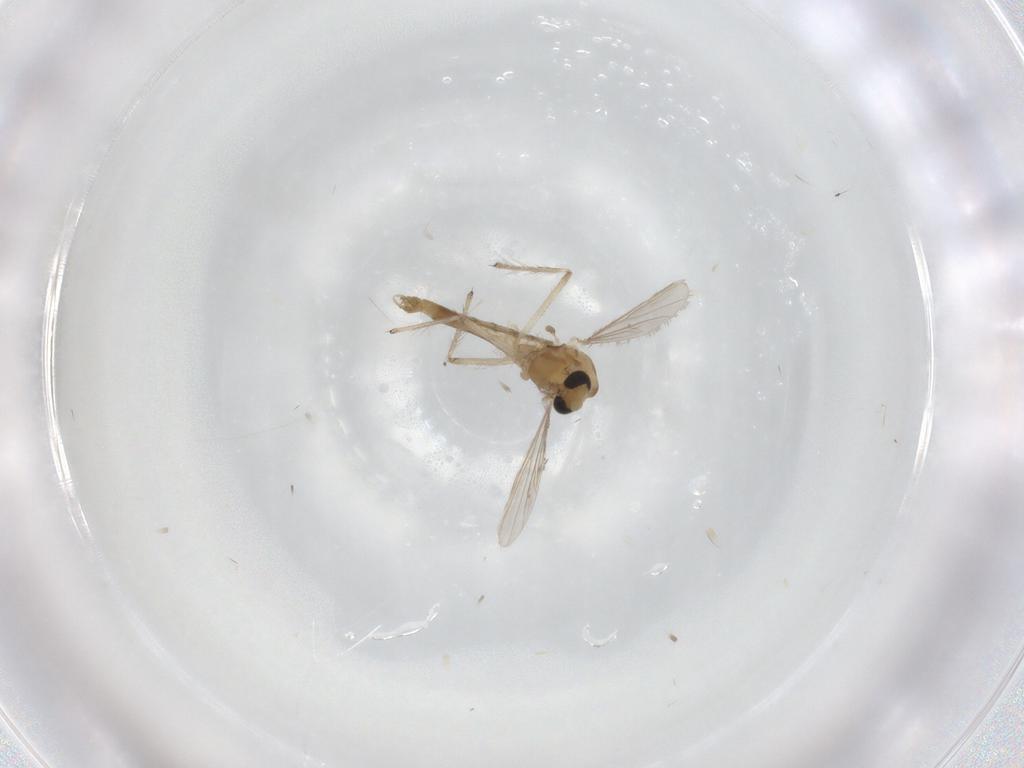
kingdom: Animalia
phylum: Arthropoda
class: Insecta
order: Diptera
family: Chironomidae
